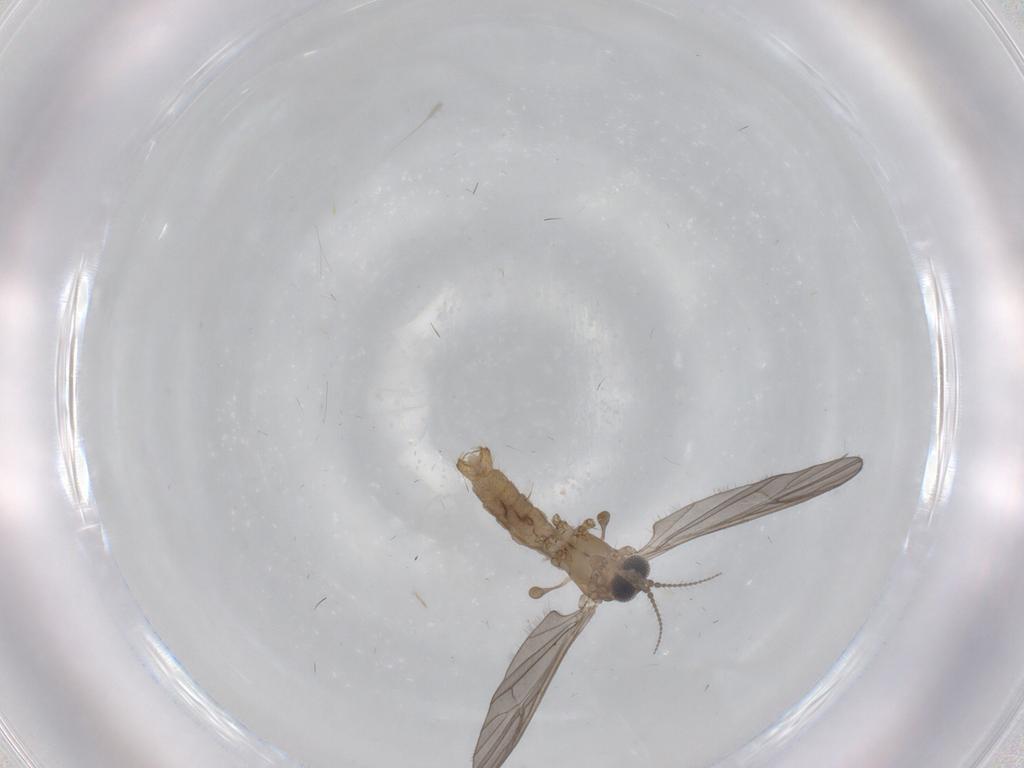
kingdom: Animalia
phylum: Arthropoda
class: Insecta
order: Diptera
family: Limoniidae
